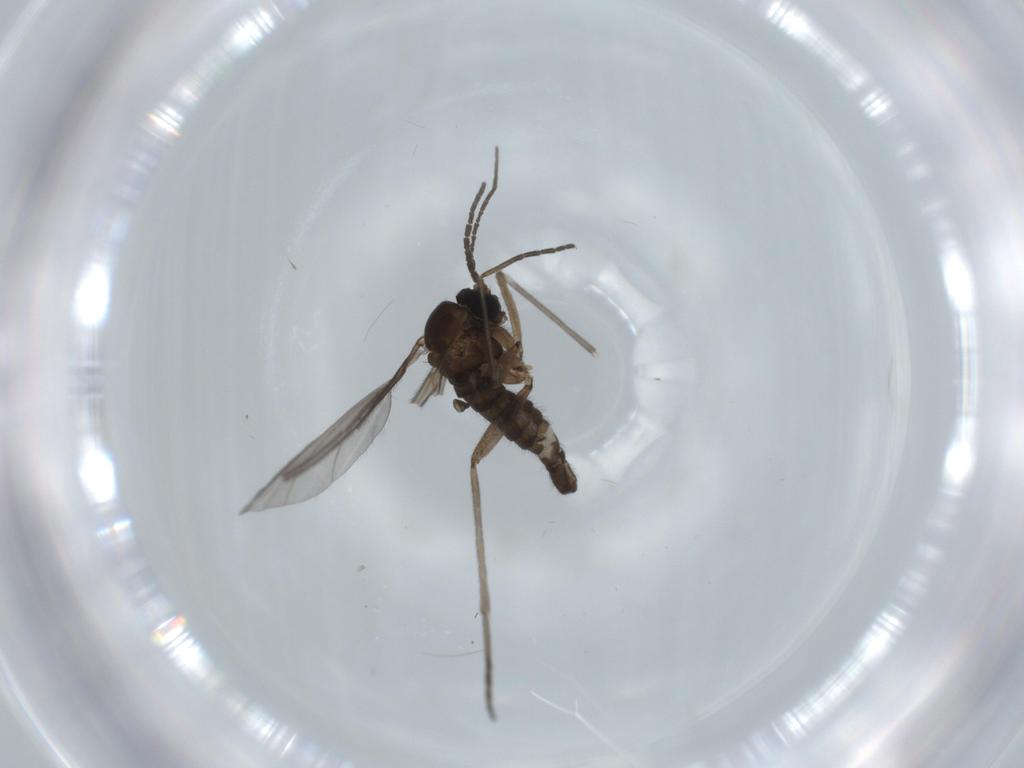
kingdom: Animalia
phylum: Arthropoda
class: Insecta
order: Diptera
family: Sciaridae
